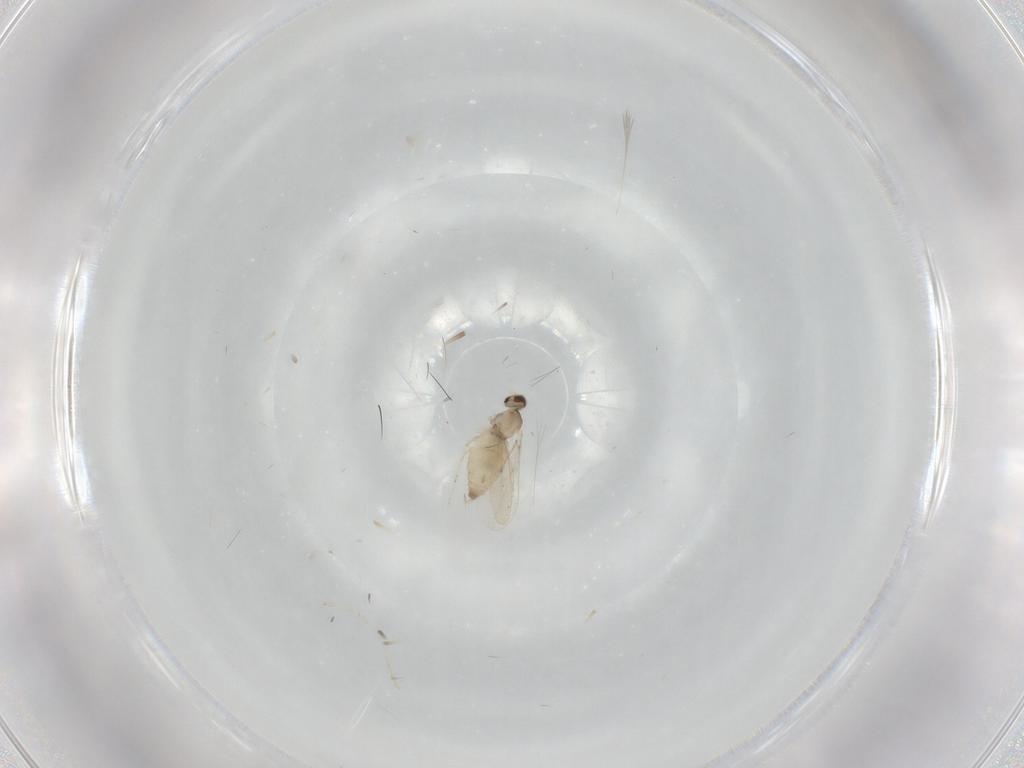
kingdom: Animalia
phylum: Arthropoda
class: Insecta
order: Diptera
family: Cecidomyiidae
